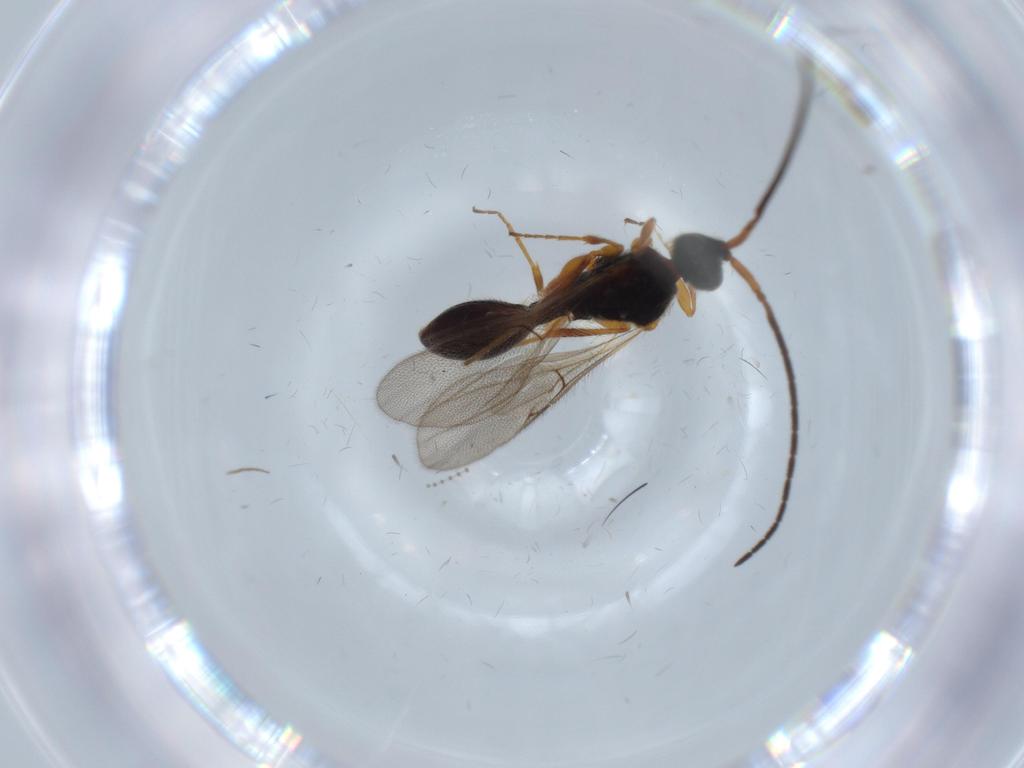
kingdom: Animalia
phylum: Arthropoda
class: Insecta
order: Hymenoptera
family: Diapriidae
